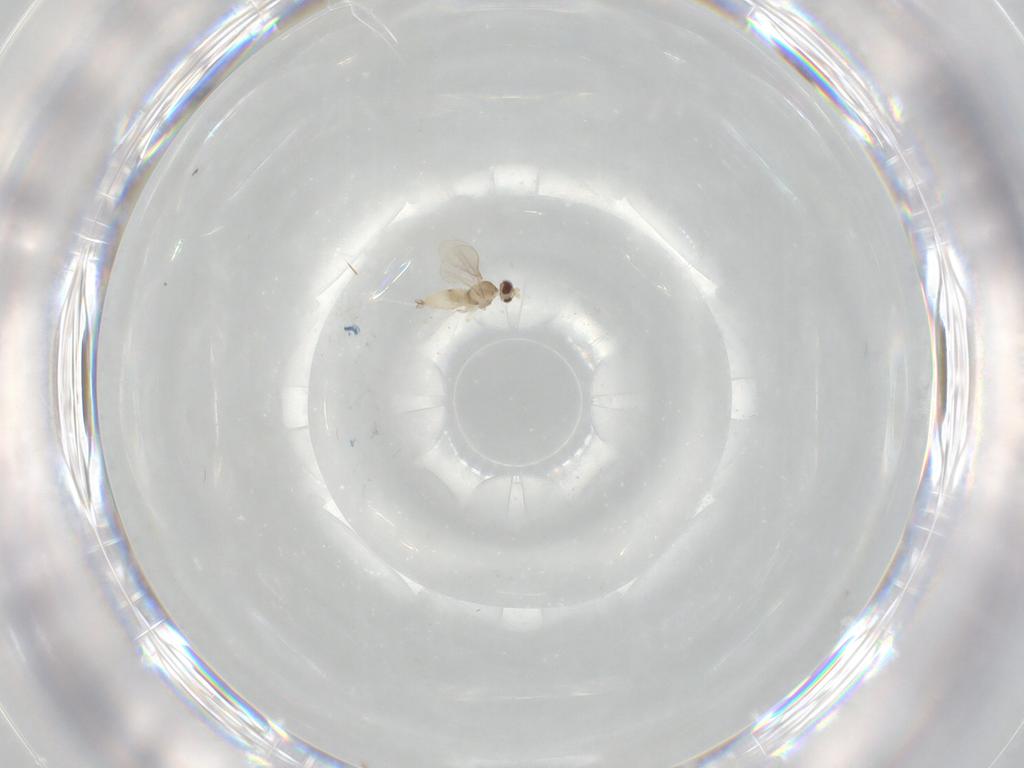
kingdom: Animalia
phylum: Arthropoda
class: Insecta
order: Diptera
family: Cecidomyiidae
